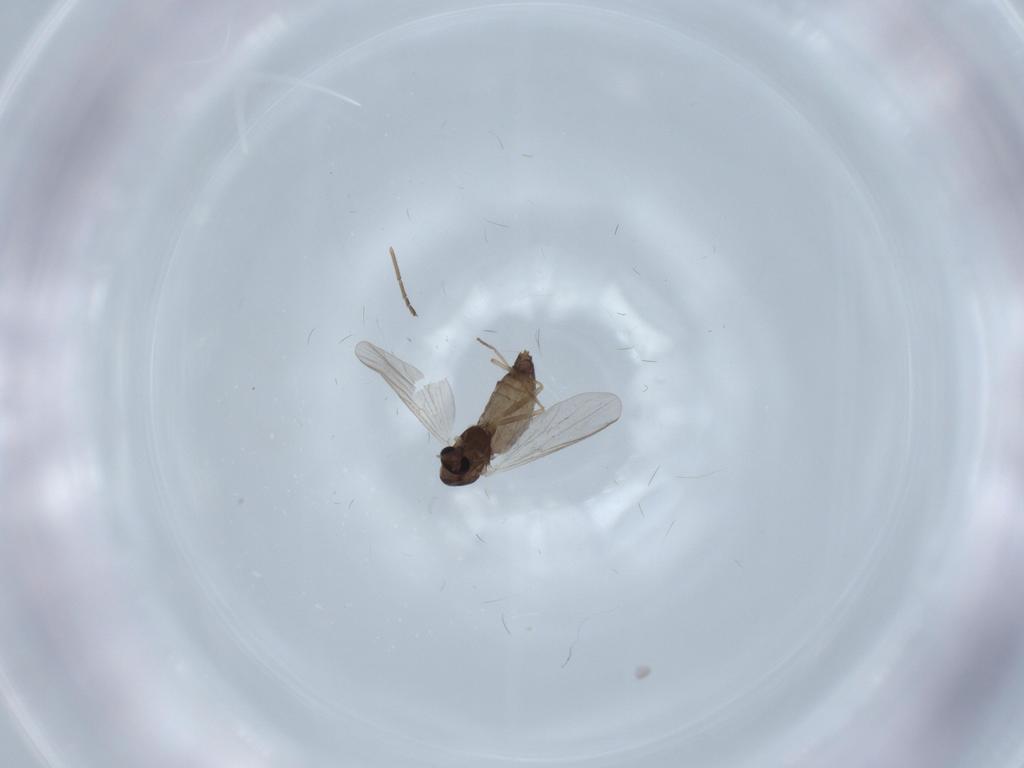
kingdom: Animalia
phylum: Arthropoda
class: Insecta
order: Diptera
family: Chironomidae
